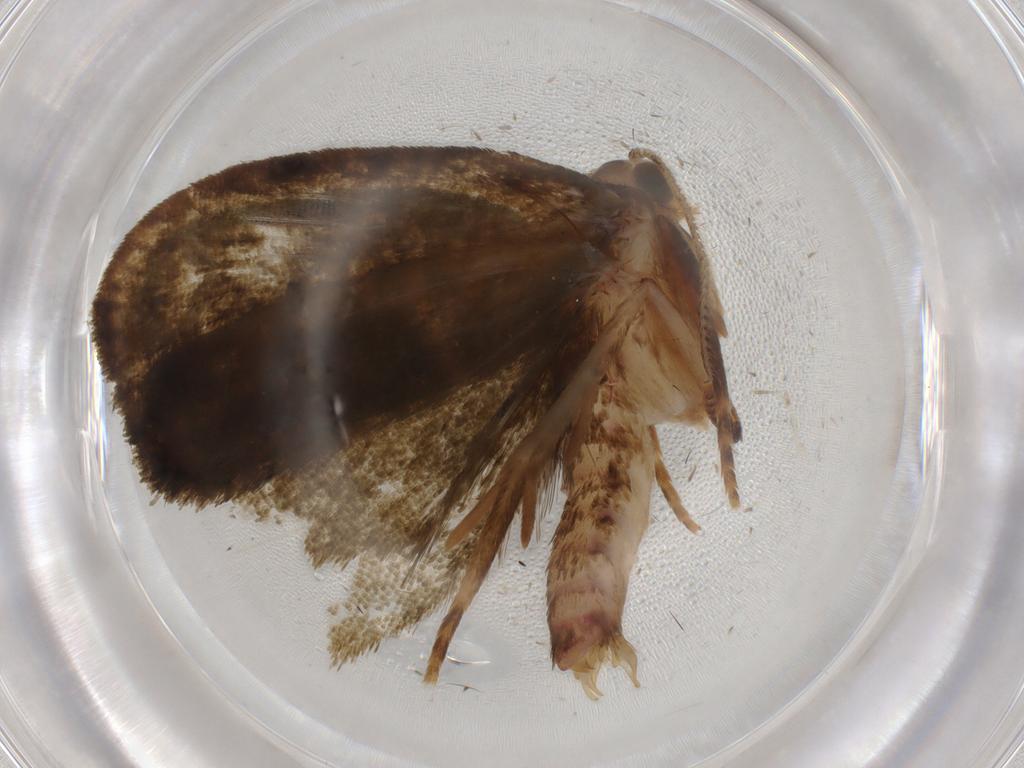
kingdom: Animalia
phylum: Arthropoda
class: Insecta
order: Lepidoptera
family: Geometridae
